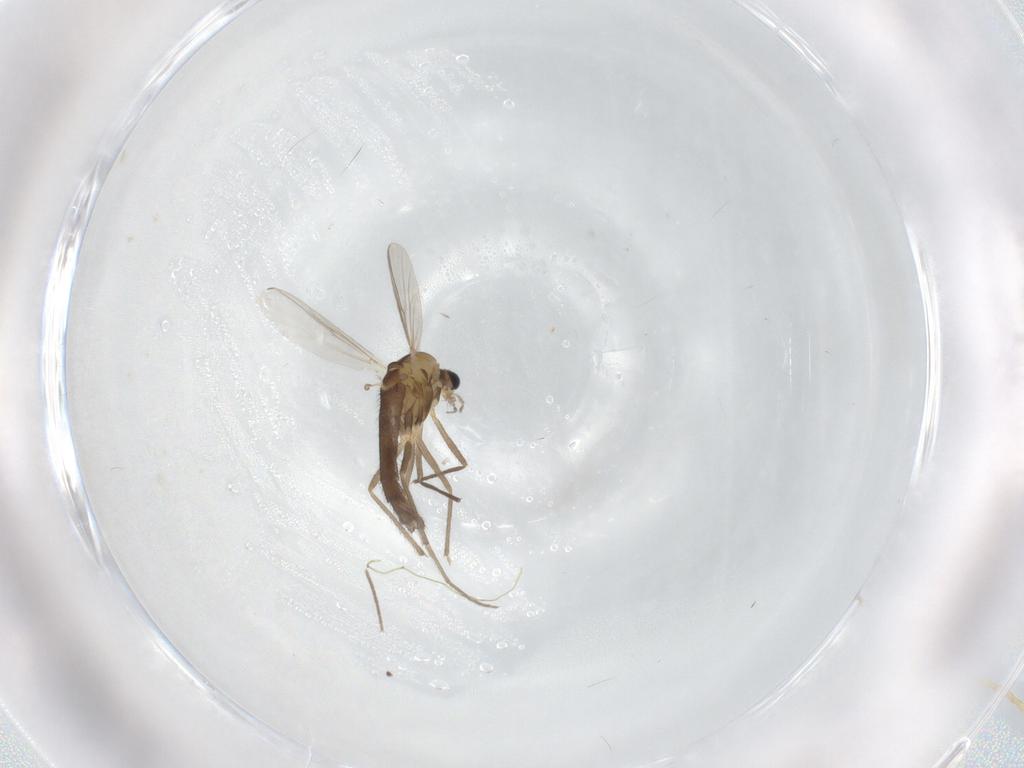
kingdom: Animalia
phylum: Arthropoda
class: Insecta
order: Diptera
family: Chironomidae
